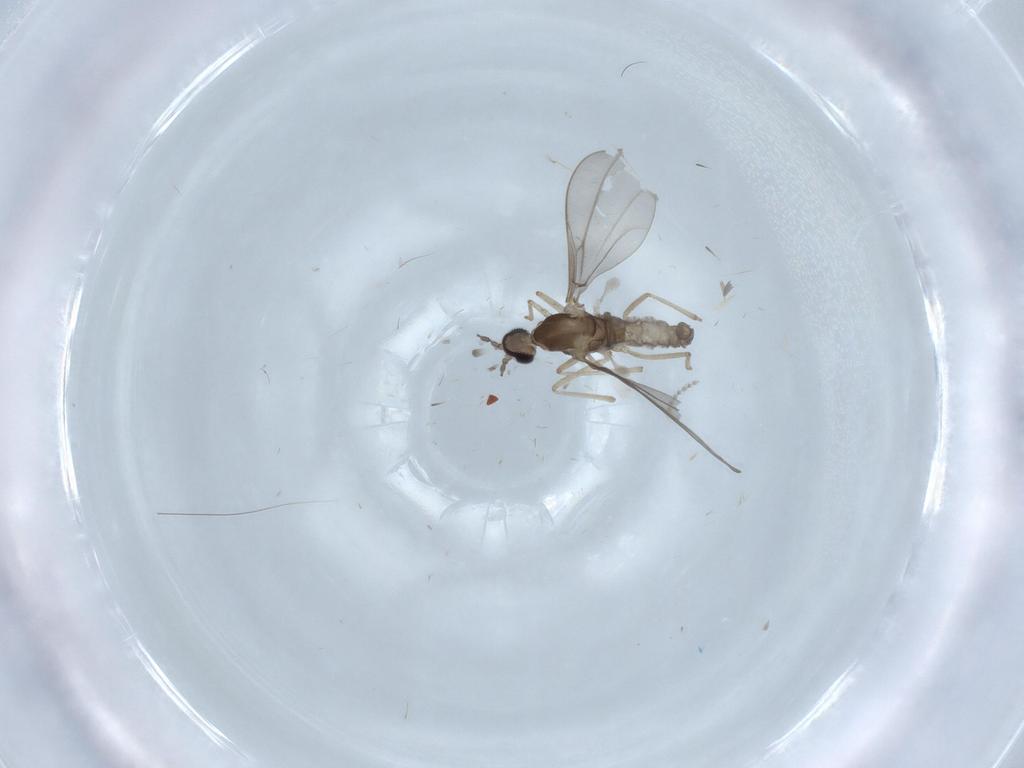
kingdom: Animalia
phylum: Arthropoda
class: Insecta
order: Diptera
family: Cecidomyiidae
